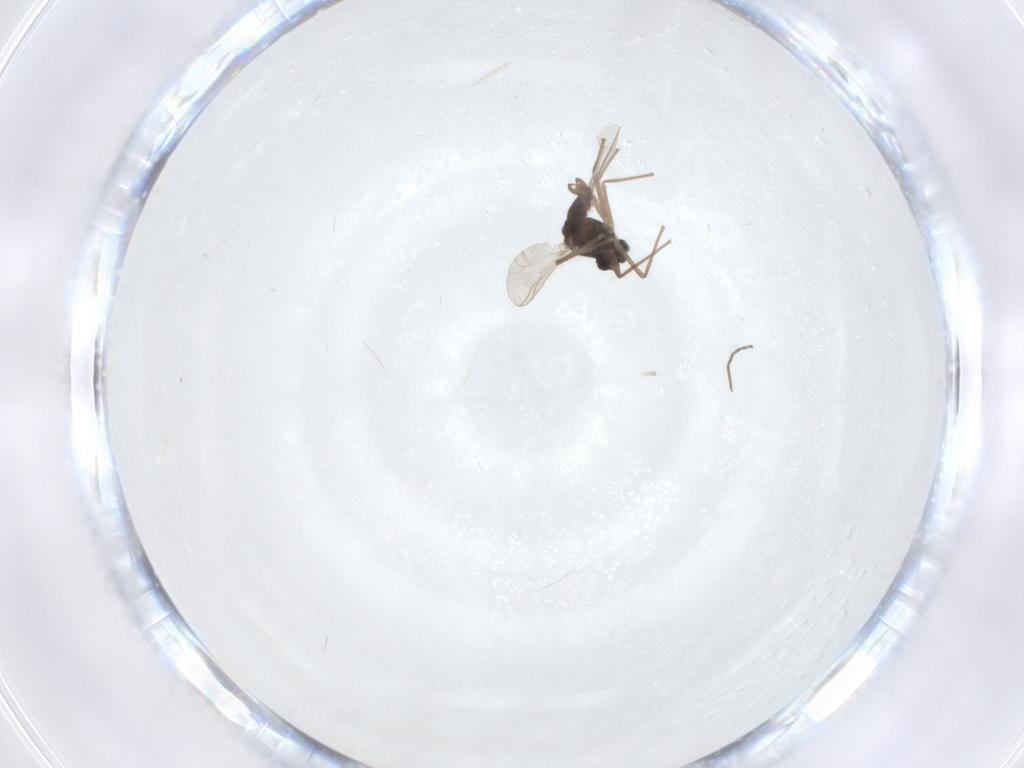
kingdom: Animalia
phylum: Arthropoda
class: Insecta
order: Diptera
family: Chironomidae
